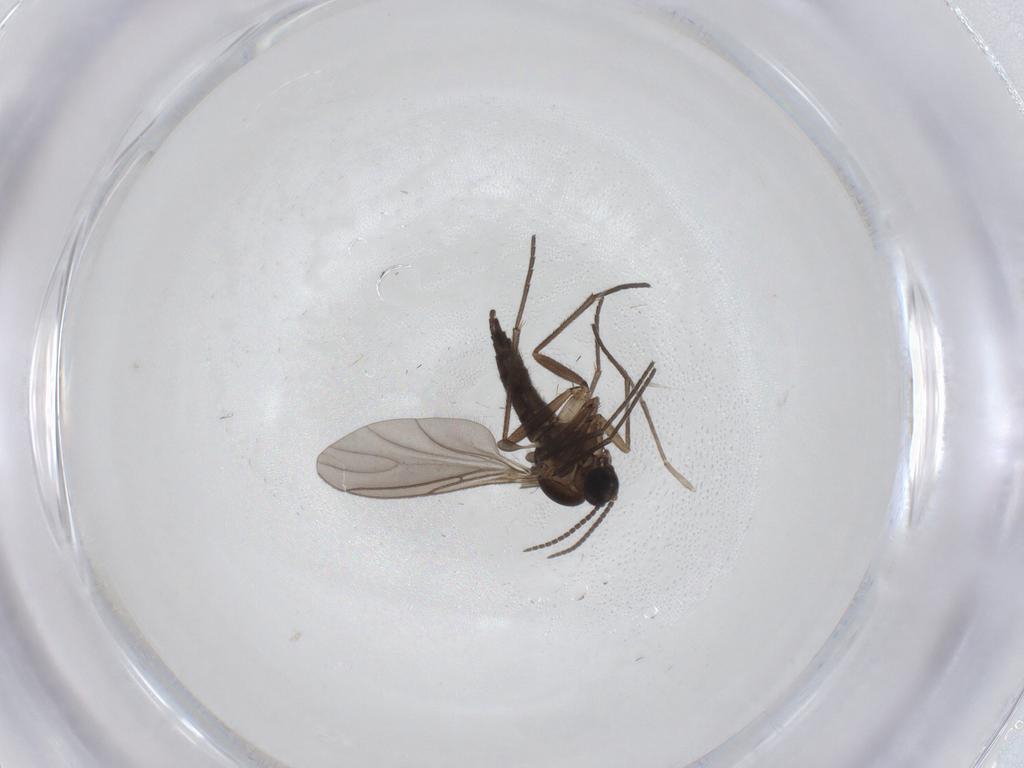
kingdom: Animalia
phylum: Arthropoda
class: Insecta
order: Diptera
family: Sciaridae
